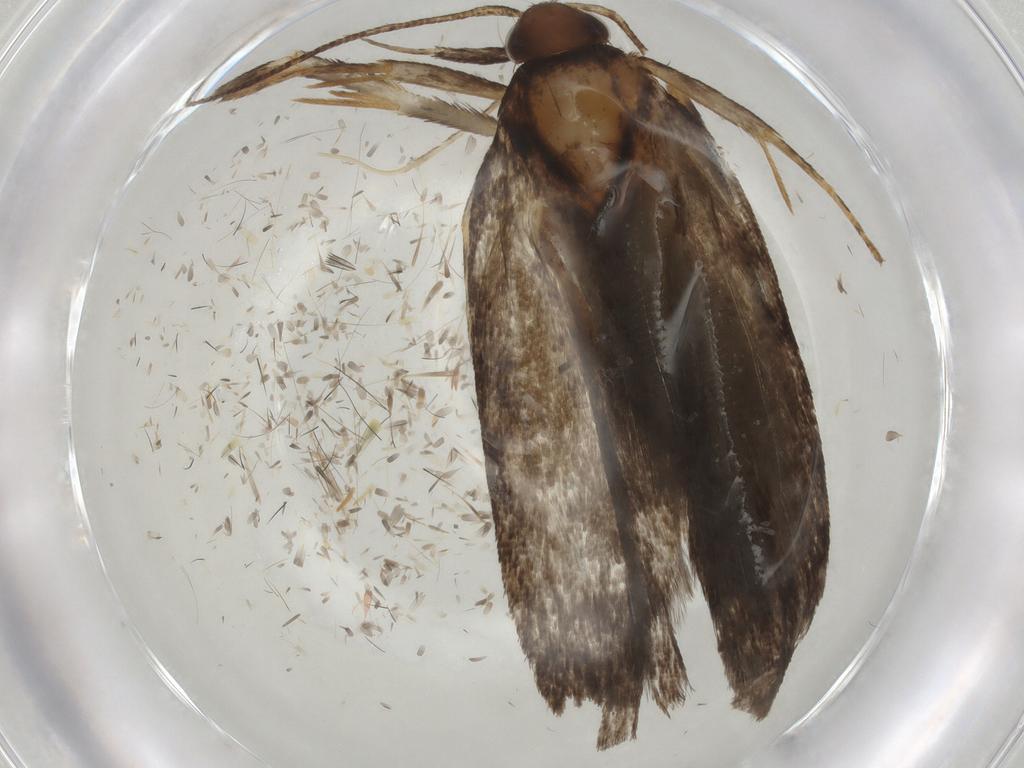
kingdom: Animalia
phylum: Arthropoda
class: Insecta
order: Lepidoptera
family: Gelechiidae
